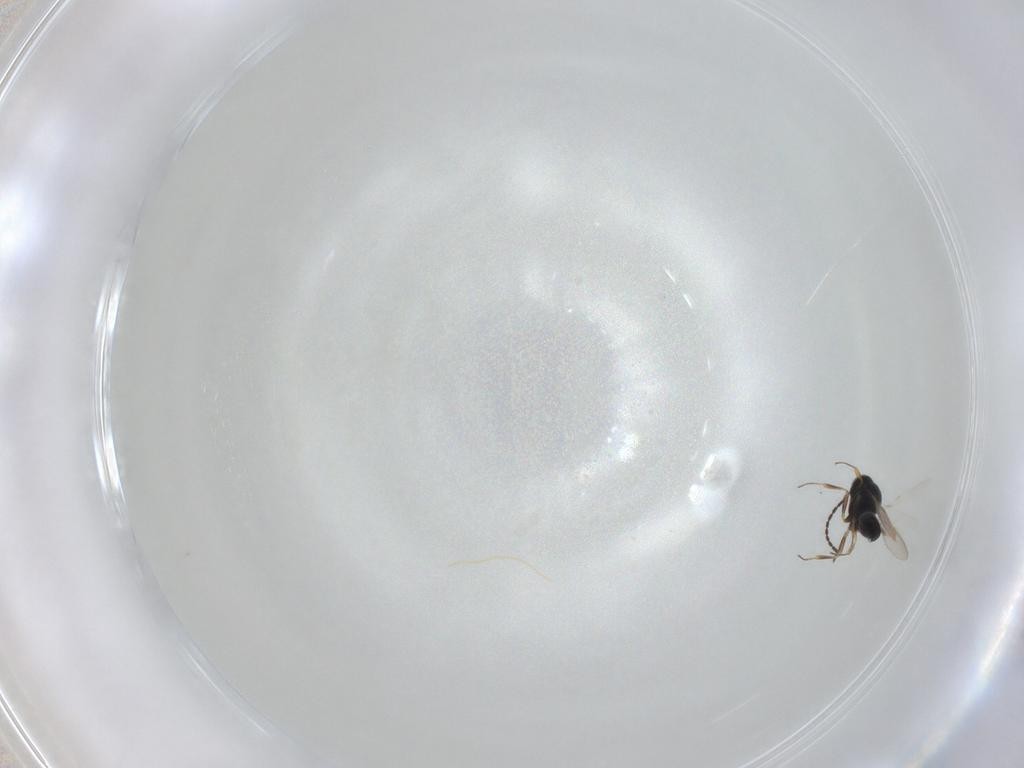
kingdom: Animalia
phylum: Arthropoda
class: Insecta
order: Hymenoptera
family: Scelionidae
